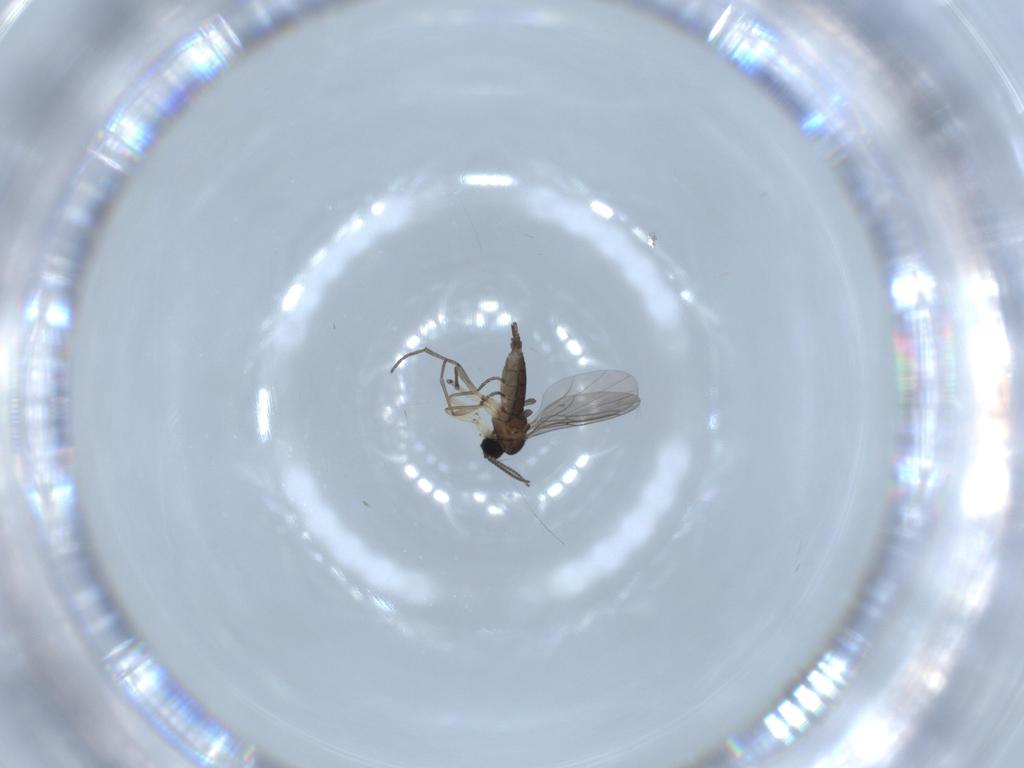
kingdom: Animalia
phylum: Arthropoda
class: Insecta
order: Diptera
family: Sciaridae
